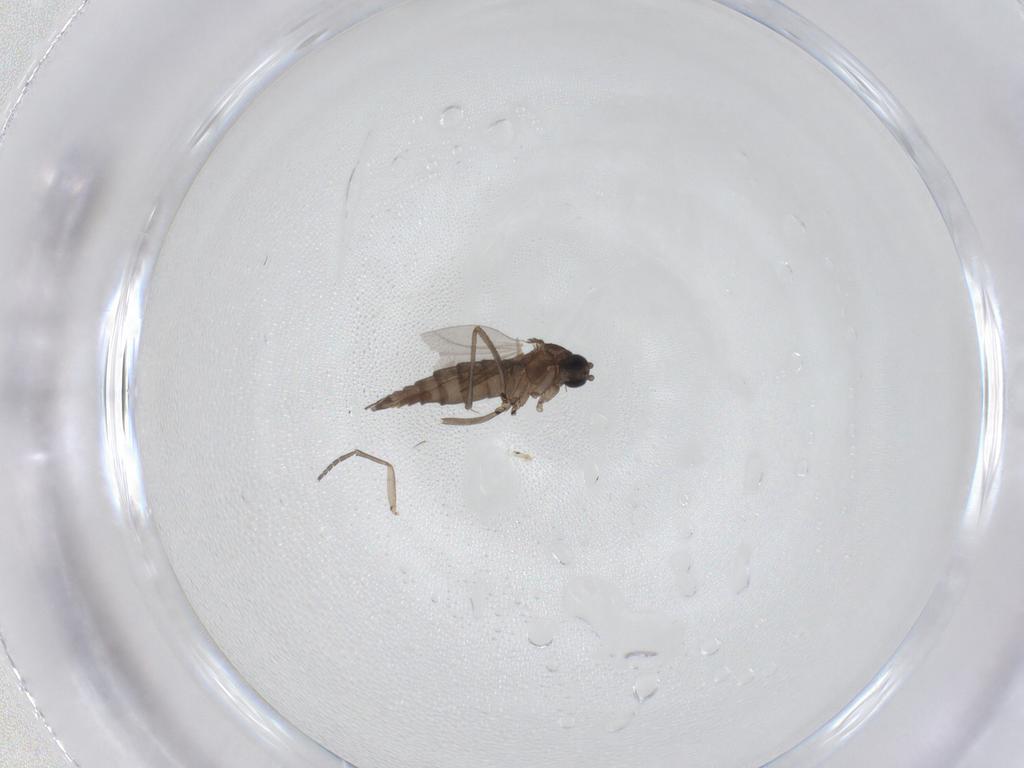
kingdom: Animalia
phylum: Arthropoda
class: Insecta
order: Diptera
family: Sciaridae
